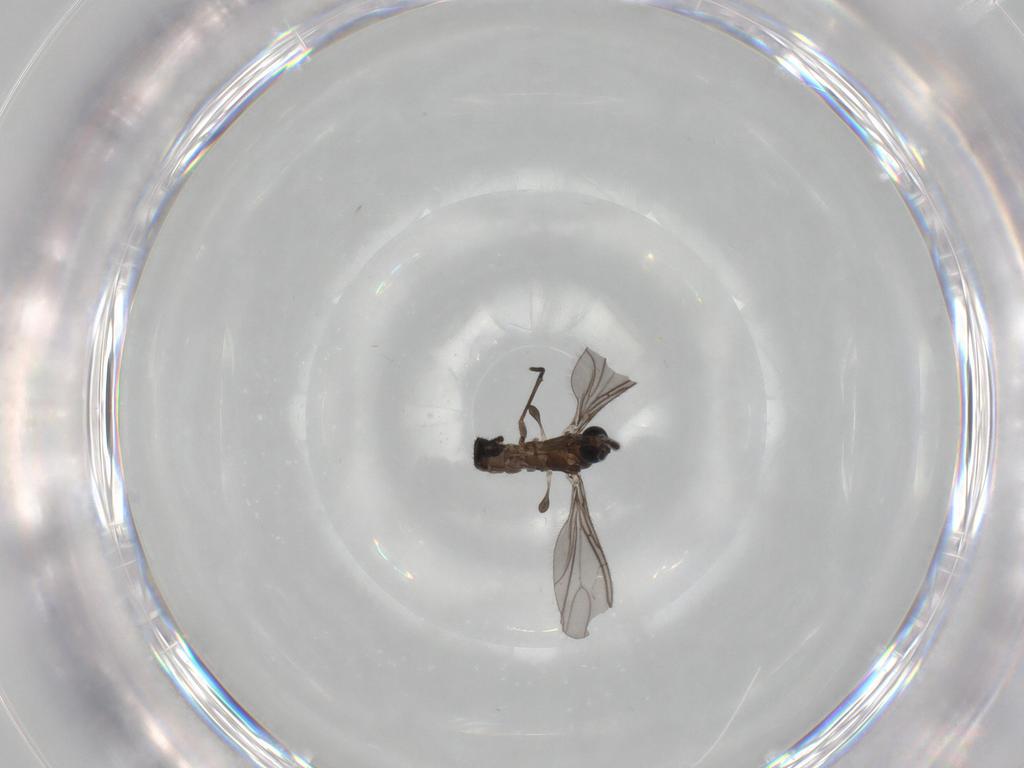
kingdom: Animalia
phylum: Arthropoda
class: Insecta
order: Diptera
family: Sciaridae
